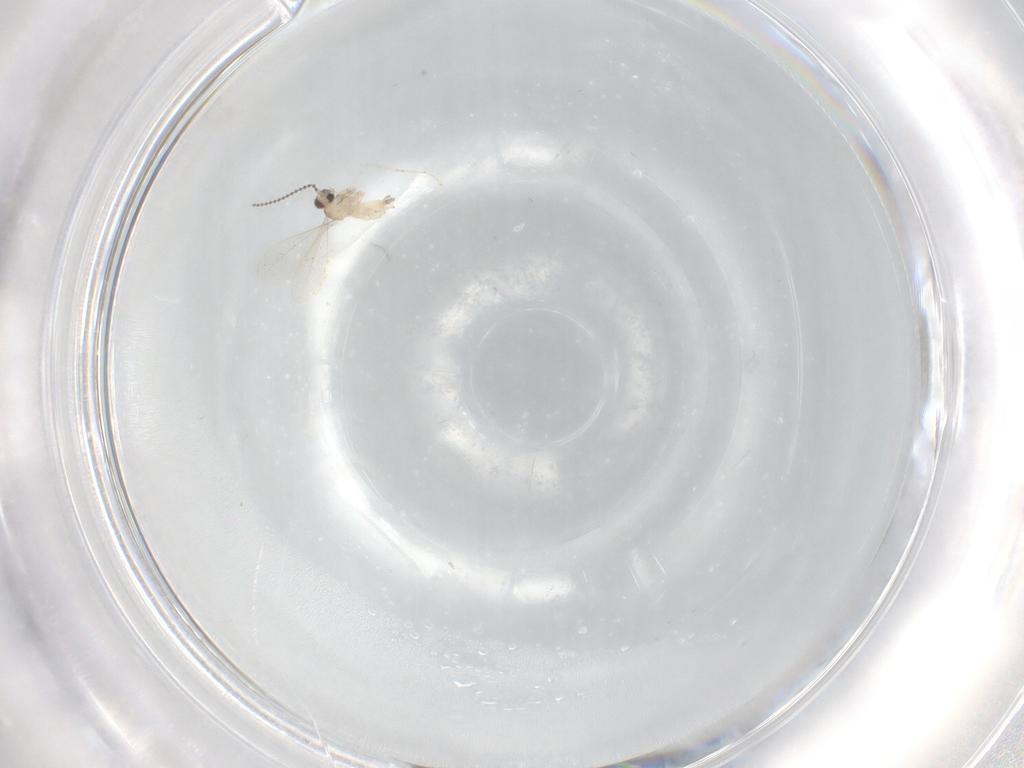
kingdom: Animalia
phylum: Arthropoda
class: Insecta
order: Diptera
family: Cecidomyiidae
